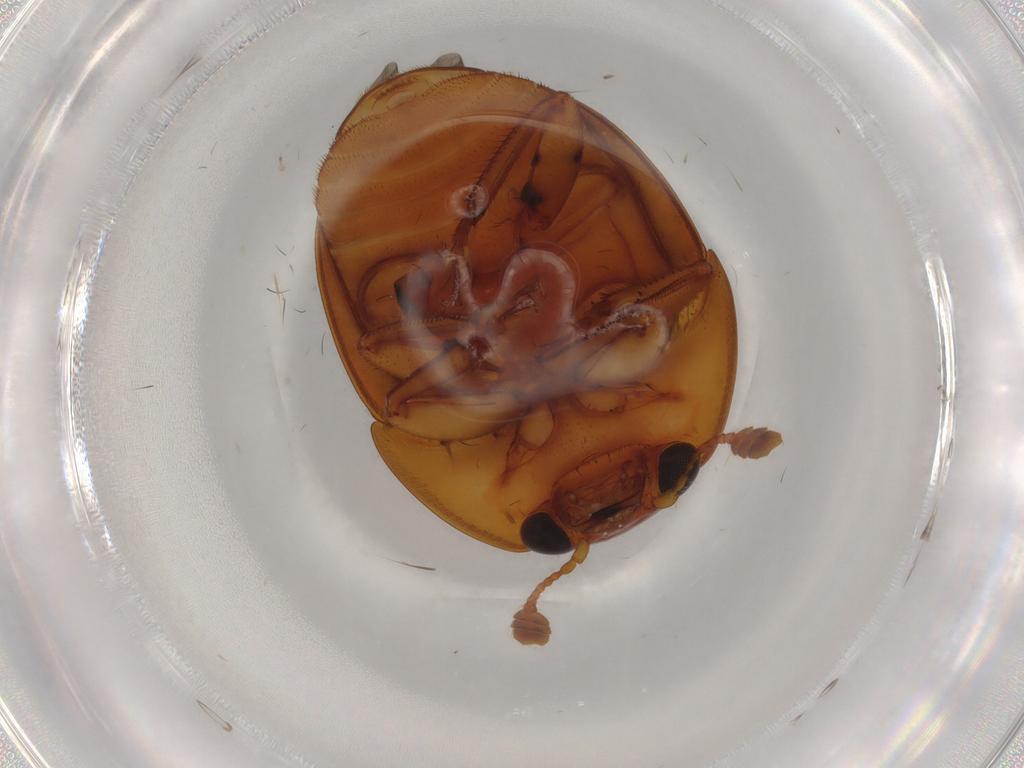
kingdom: Animalia
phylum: Arthropoda
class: Insecta
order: Coleoptera
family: Nitidulidae
